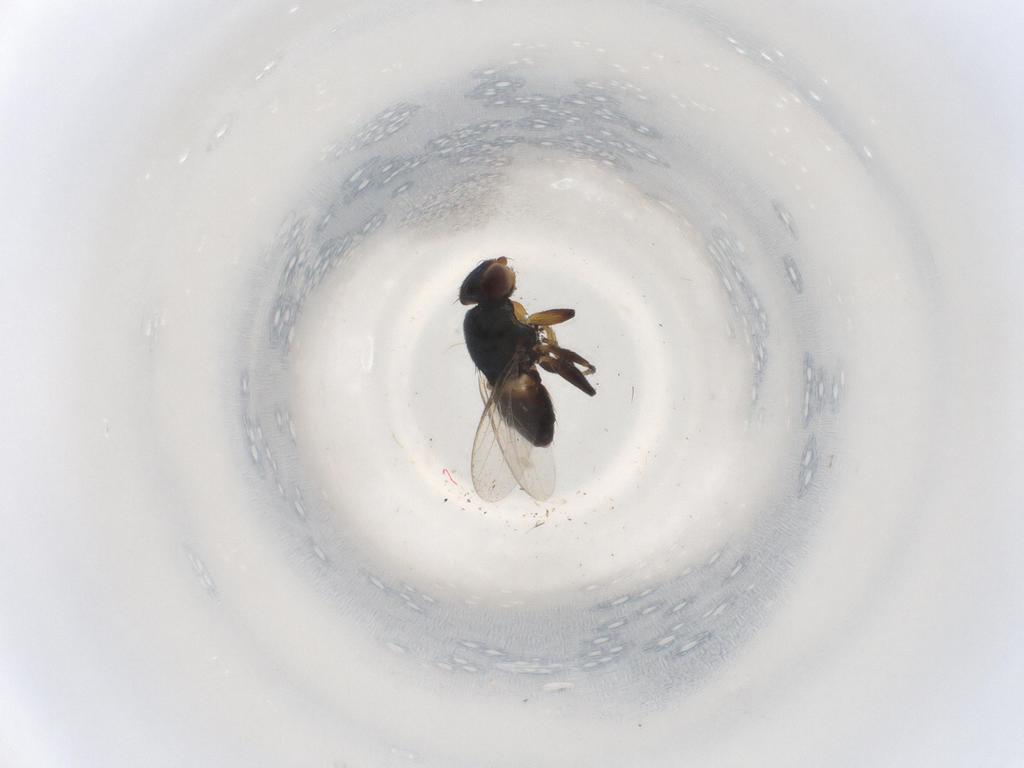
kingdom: Animalia
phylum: Arthropoda
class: Insecta
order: Diptera
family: Chloropidae
